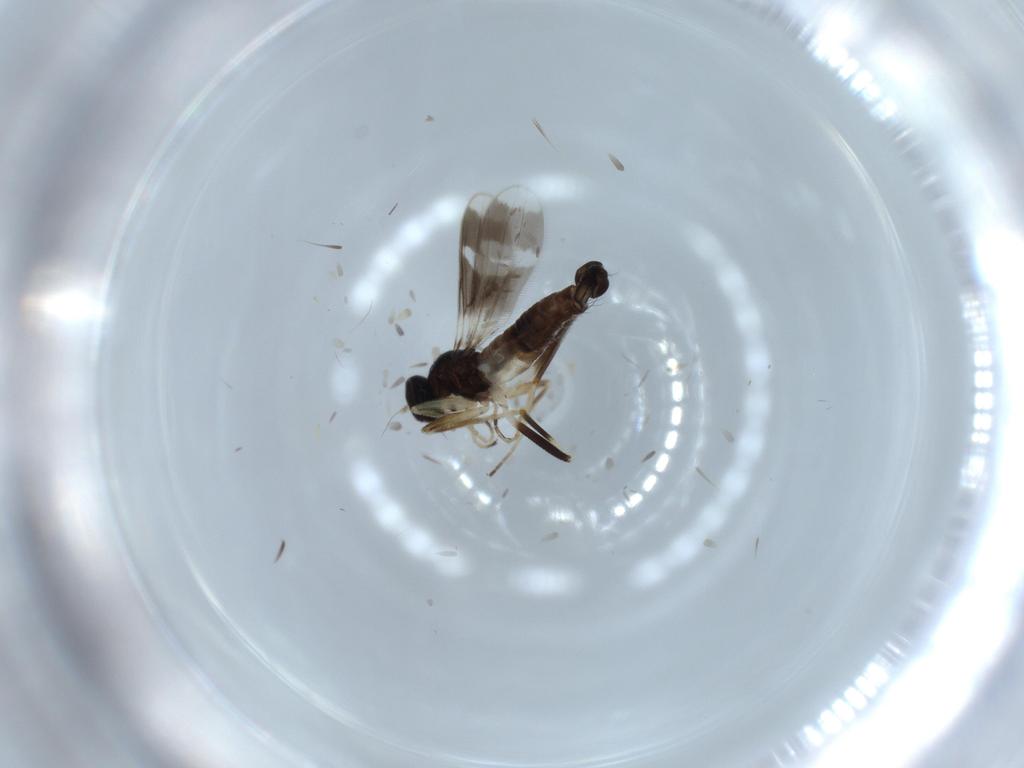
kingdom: Animalia
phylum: Arthropoda
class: Insecta
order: Diptera
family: Hybotidae
